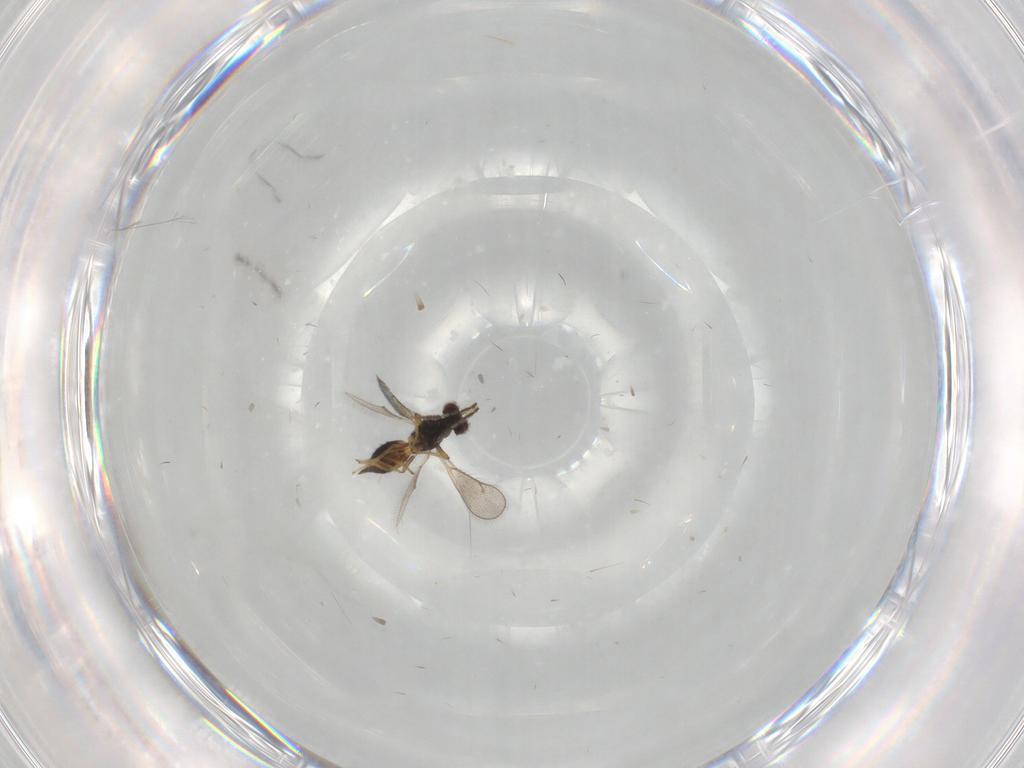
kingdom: Animalia
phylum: Arthropoda
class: Insecta
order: Hymenoptera
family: Eulophidae
